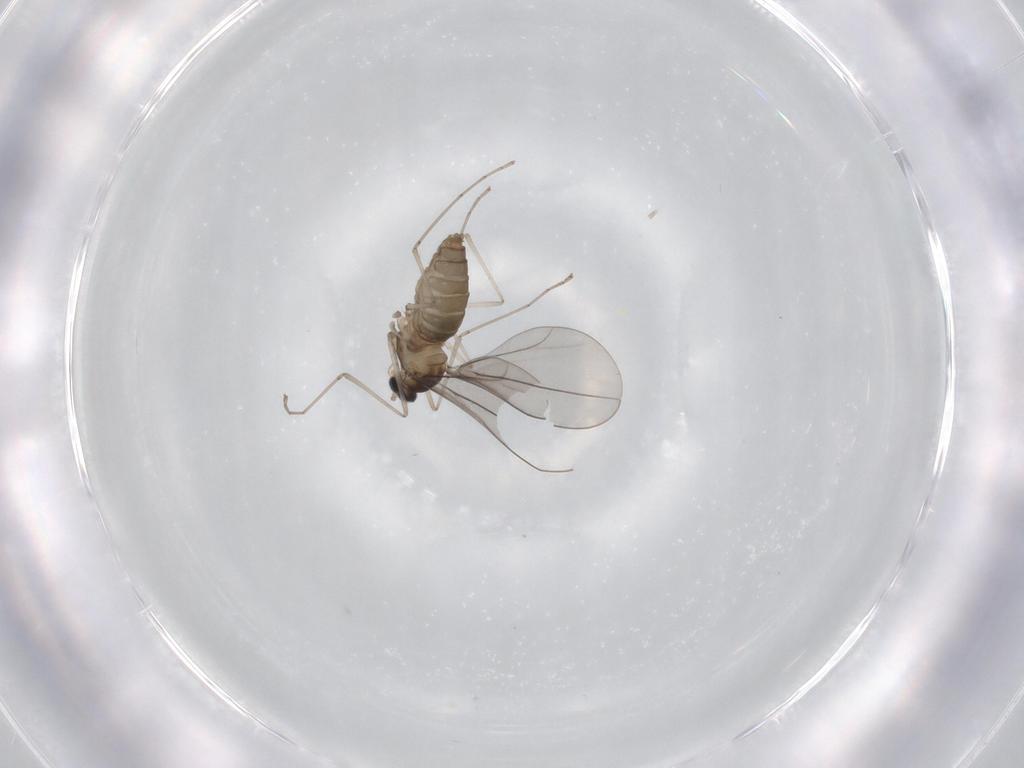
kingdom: Animalia
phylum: Arthropoda
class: Insecta
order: Diptera
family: Cecidomyiidae
